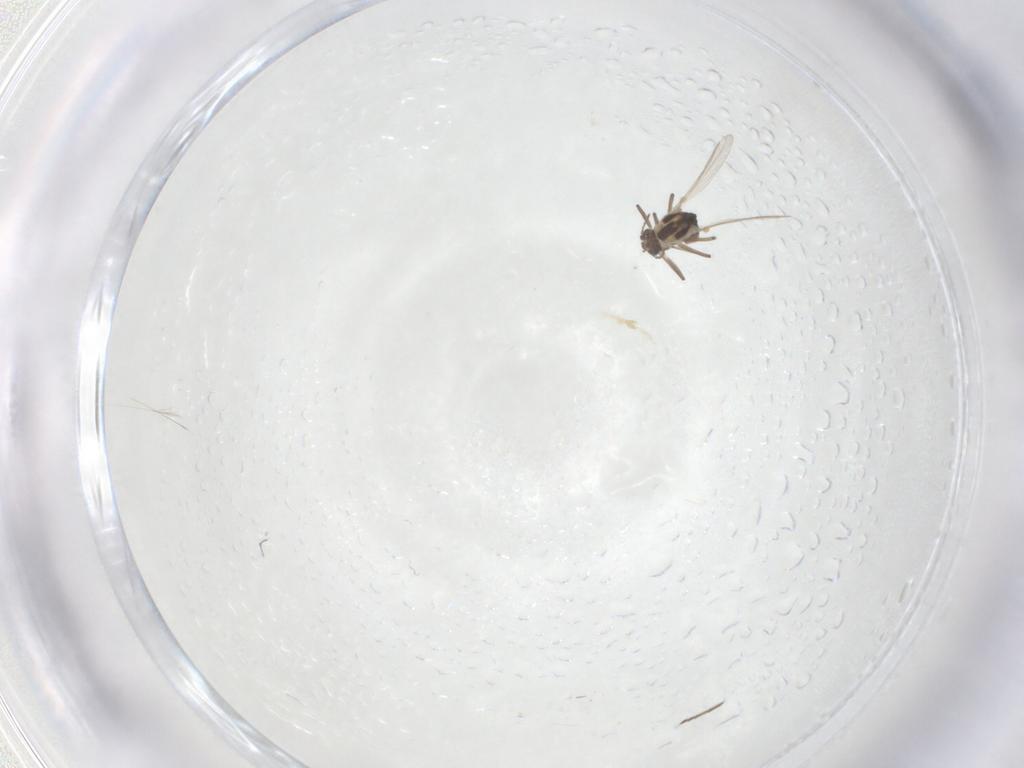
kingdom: Animalia
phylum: Arthropoda
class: Insecta
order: Diptera
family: Chironomidae
